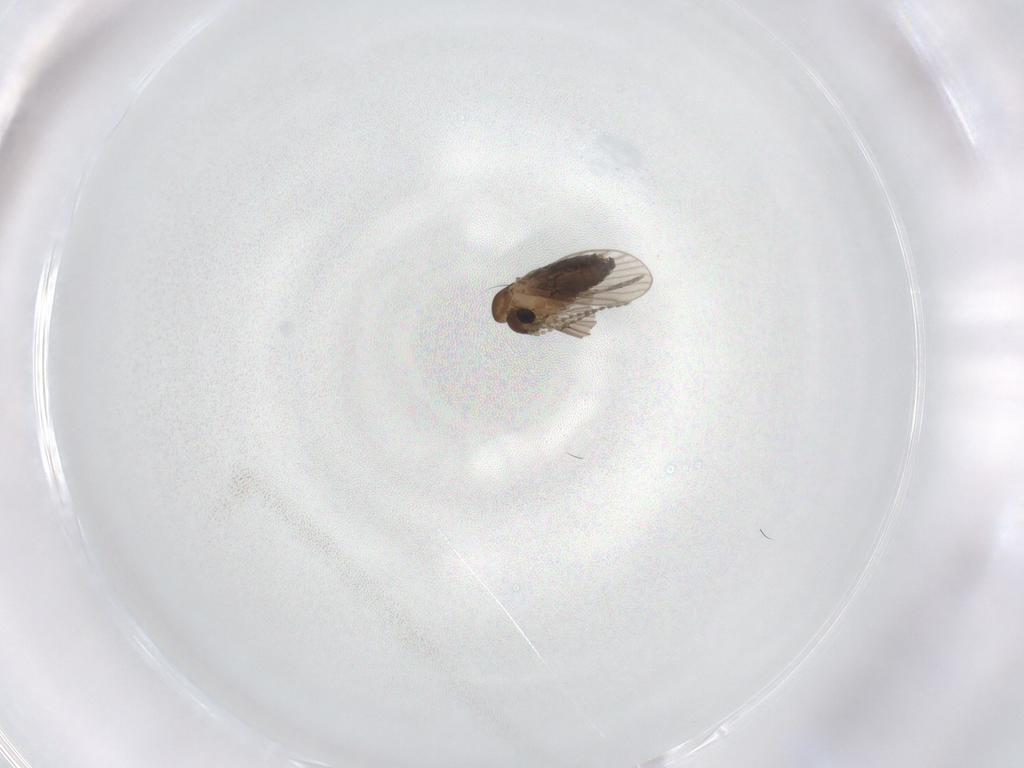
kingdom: Animalia
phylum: Arthropoda
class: Insecta
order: Diptera
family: Psychodidae
